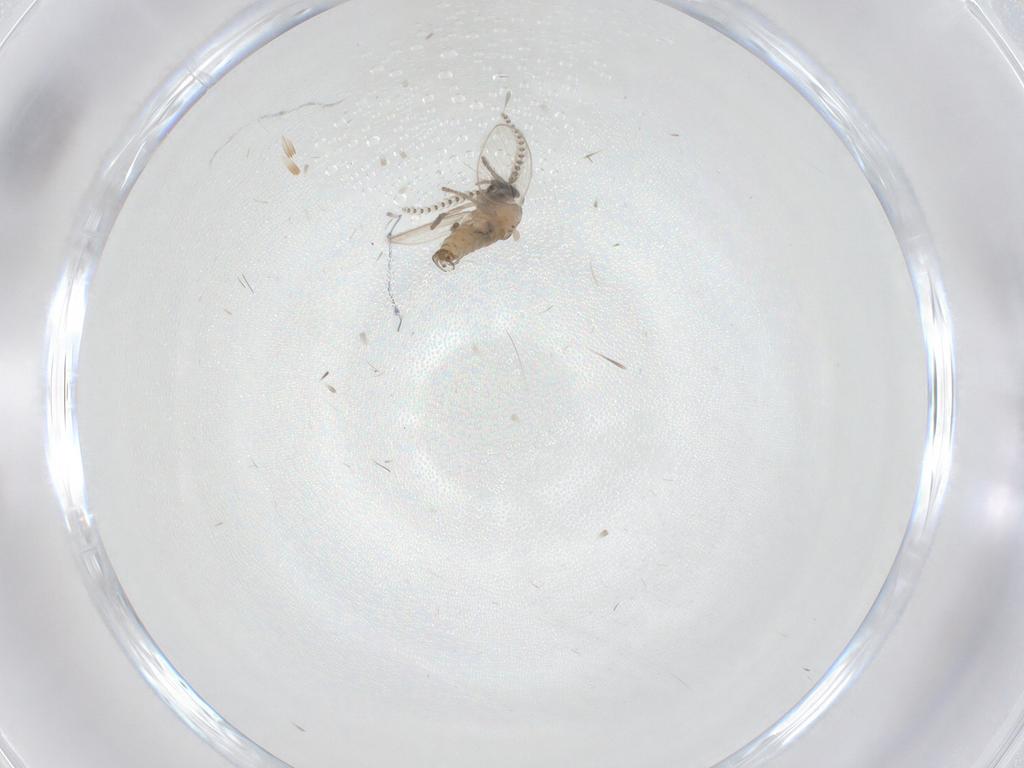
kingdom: Animalia
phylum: Arthropoda
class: Insecta
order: Diptera
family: Psychodidae
